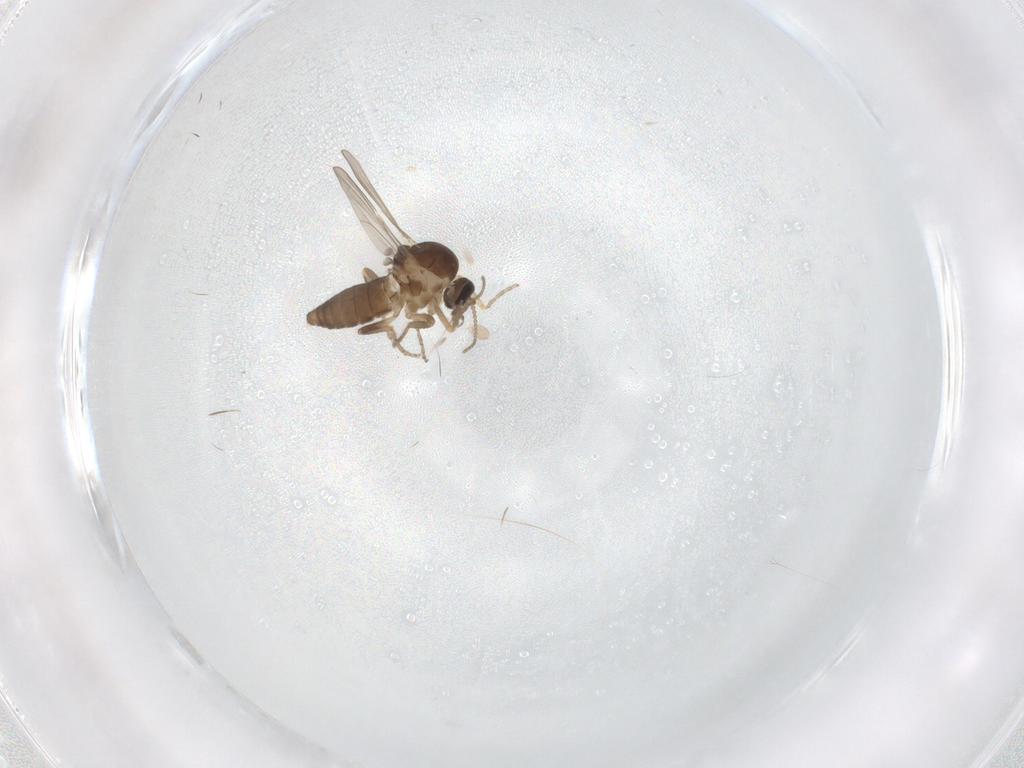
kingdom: Animalia
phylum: Arthropoda
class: Insecta
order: Diptera
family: Ceratopogonidae
